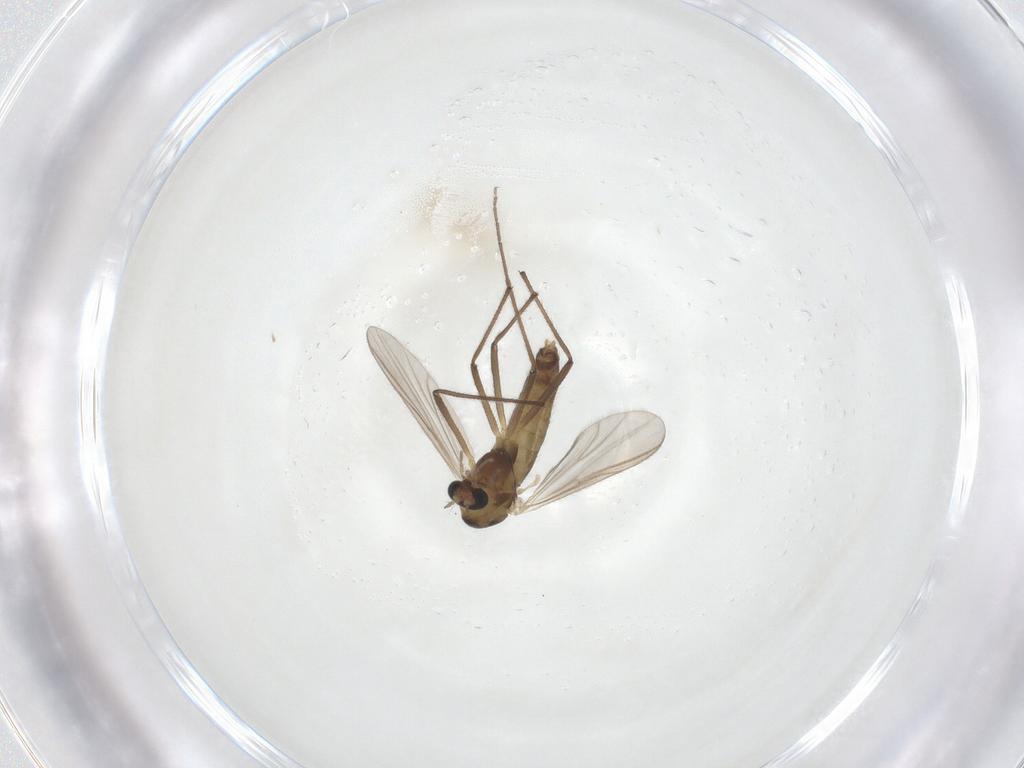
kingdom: Animalia
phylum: Arthropoda
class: Insecta
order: Diptera
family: Chironomidae
